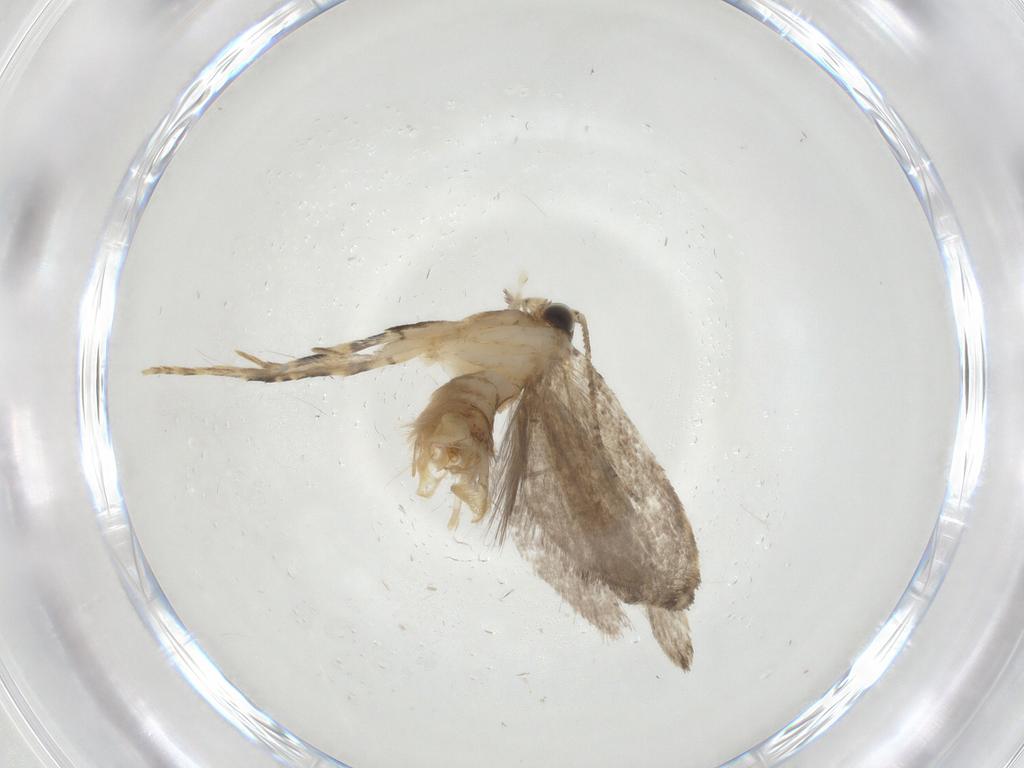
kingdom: Animalia
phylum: Arthropoda
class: Insecta
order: Lepidoptera
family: Tineidae
